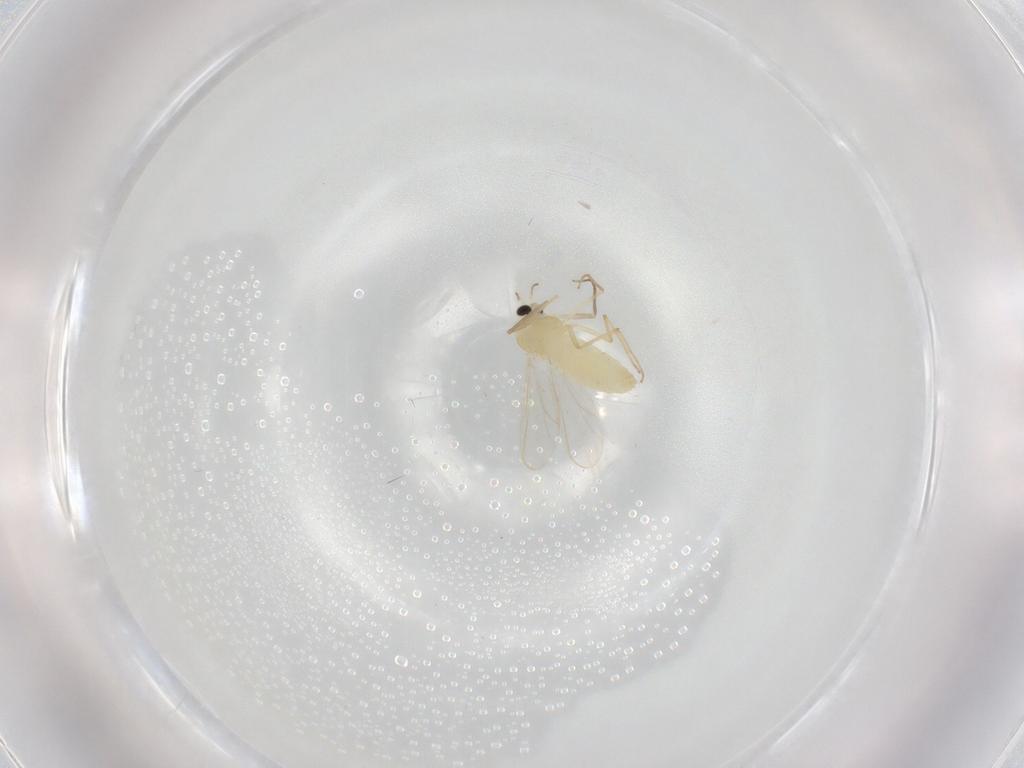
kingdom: Animalia
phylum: Arthropoda
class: Insecta
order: Diptera
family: Chironomidae
